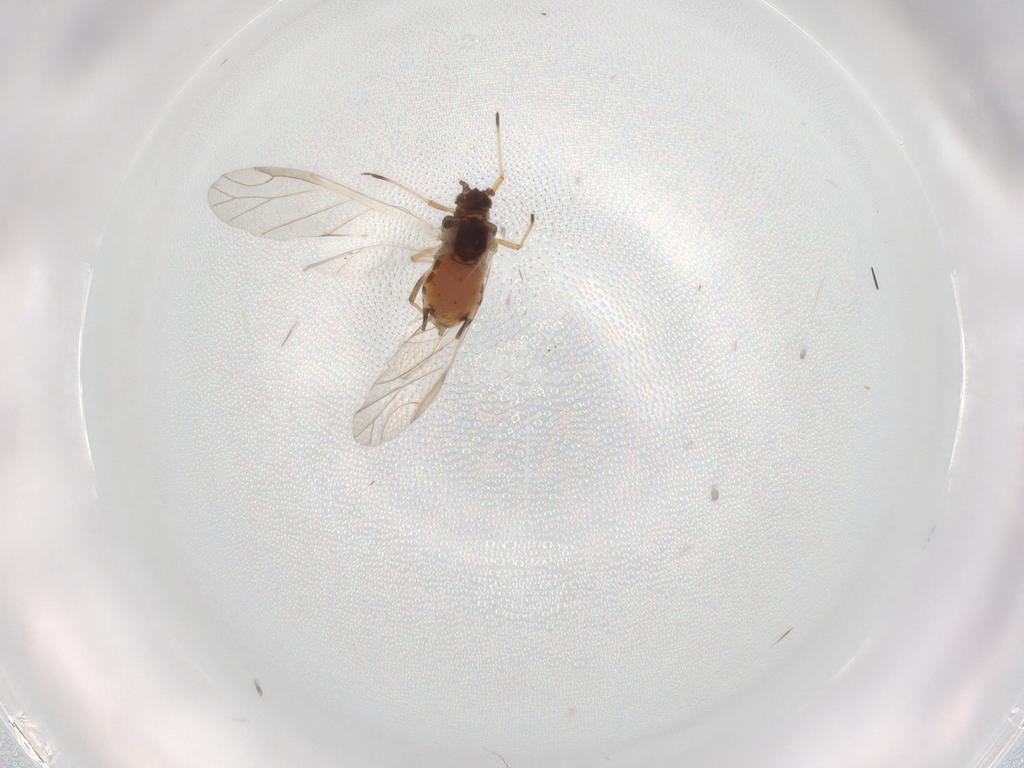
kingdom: Animalia
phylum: Arthropoda
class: Insecta
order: Hemiptera
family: Aphididae
